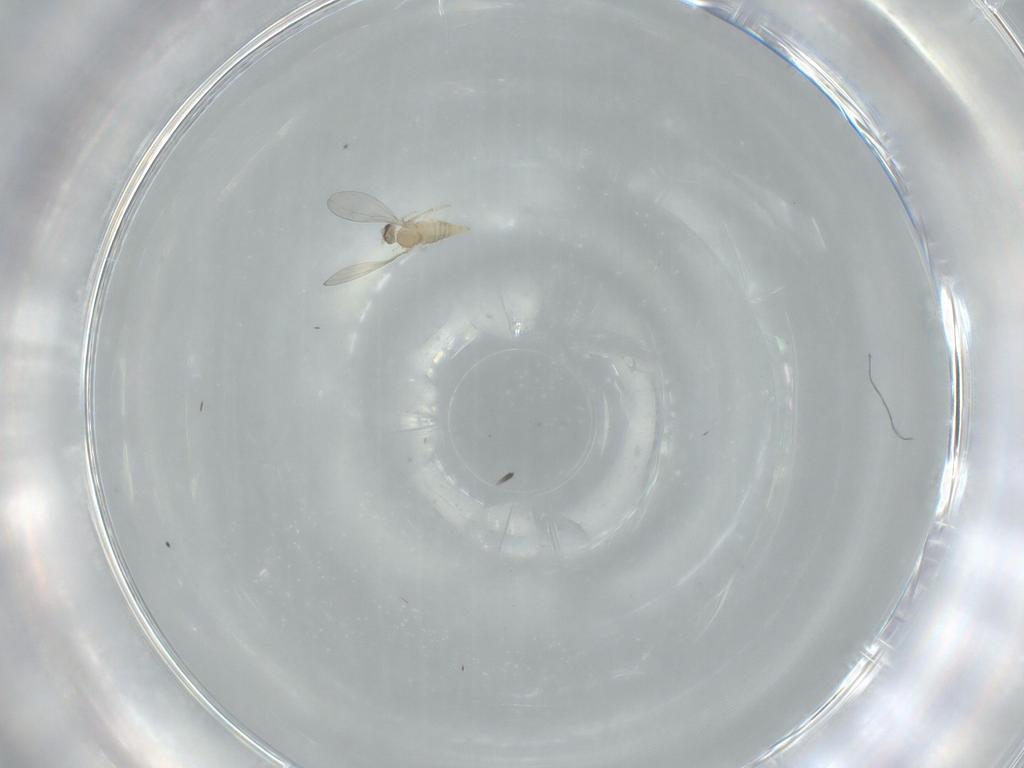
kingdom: Animalia
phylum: Arthropoda
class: Insecta
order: Diptera
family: Cecidomyiidae
